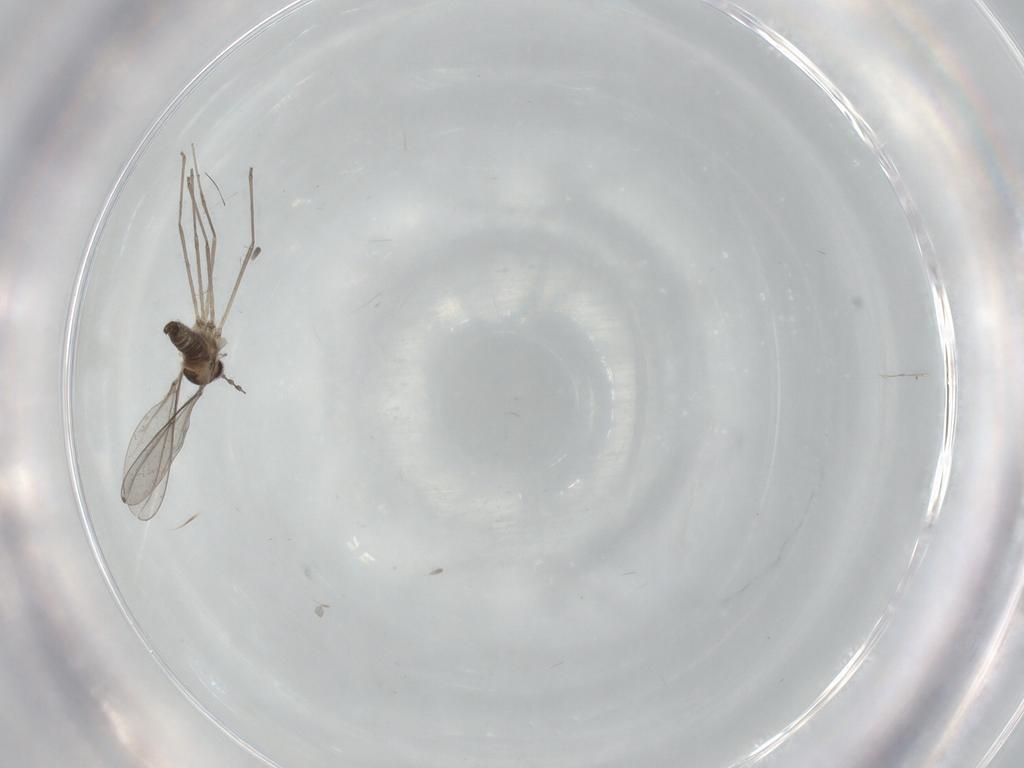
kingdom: Animalia
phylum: Arthropoda
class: Insecta
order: Diptera
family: Cecidomyiidae
